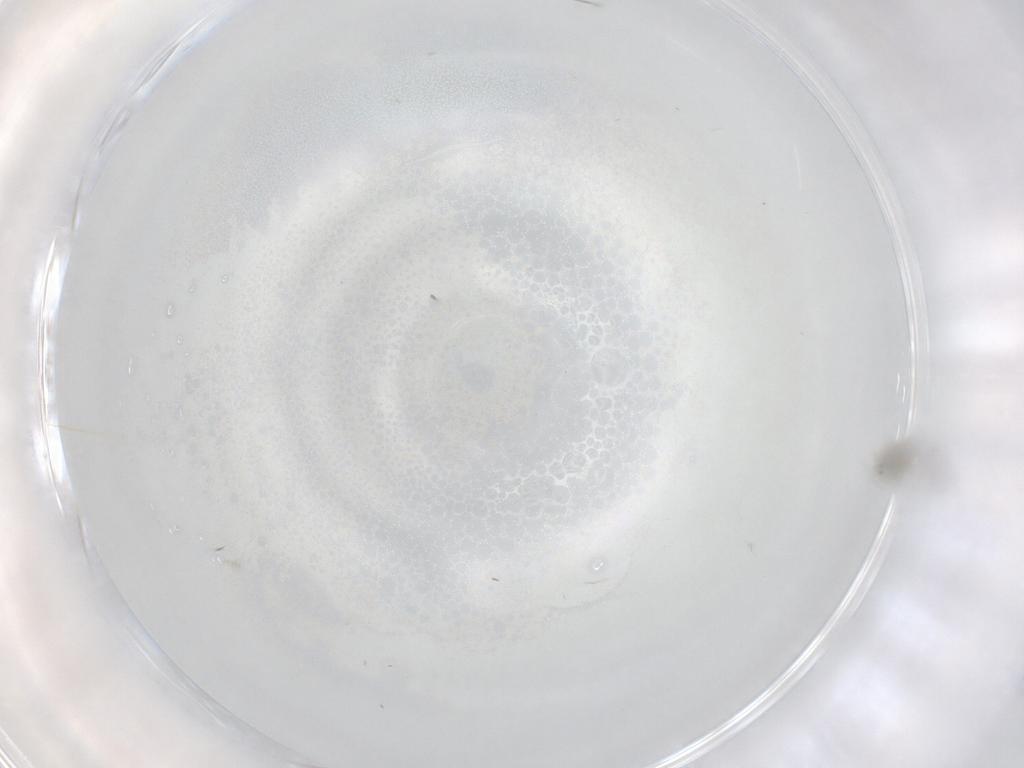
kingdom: Animalia
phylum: Arthropoda
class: Insecta
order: Diptera
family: Cecidomyiidae
